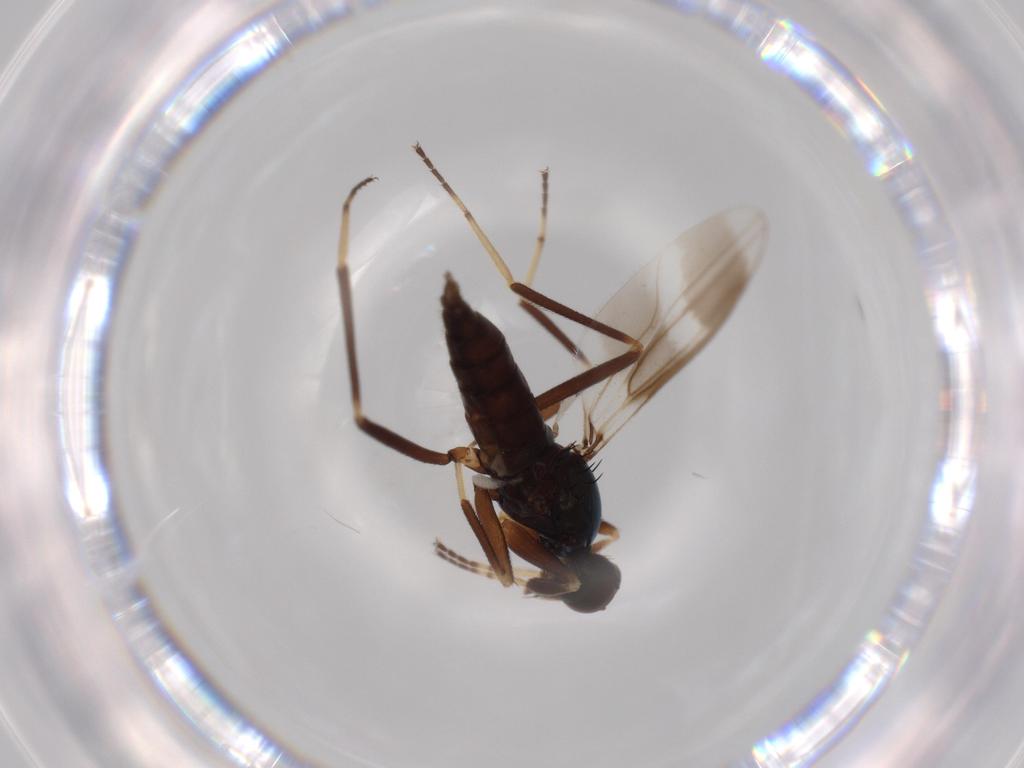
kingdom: Animalia
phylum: Arthropoda
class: Insecta
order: Diptera
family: Hybotidae
